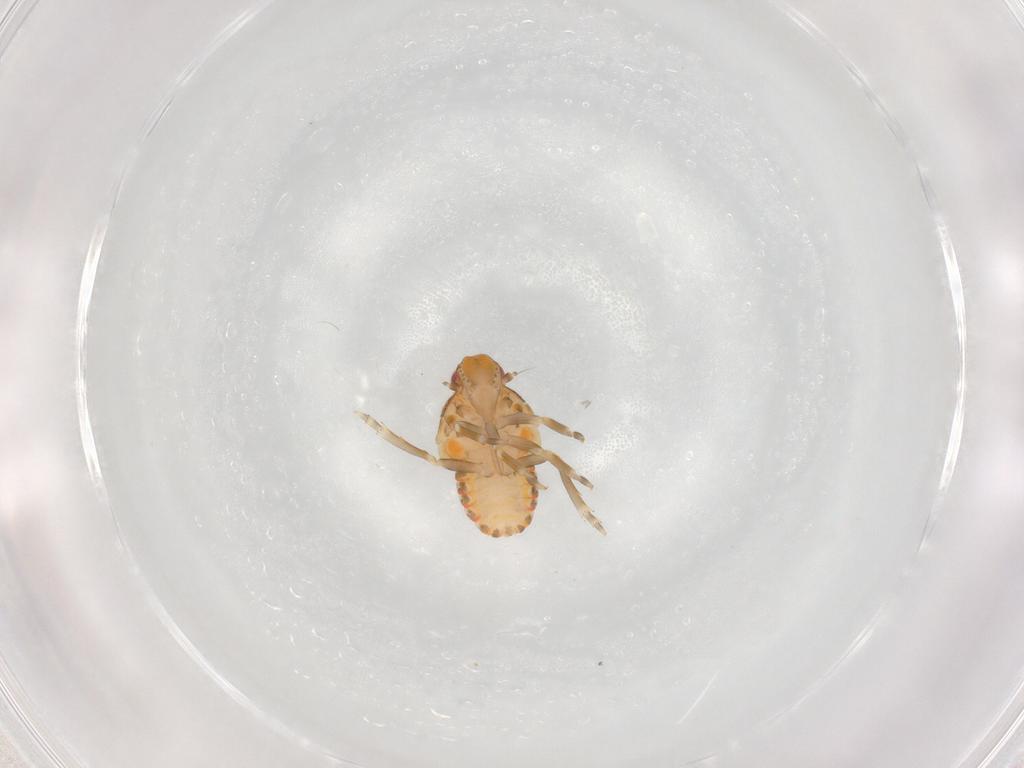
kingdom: Animalia
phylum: Arthropoda
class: Insecta
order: Hemiptera
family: Flatidae
